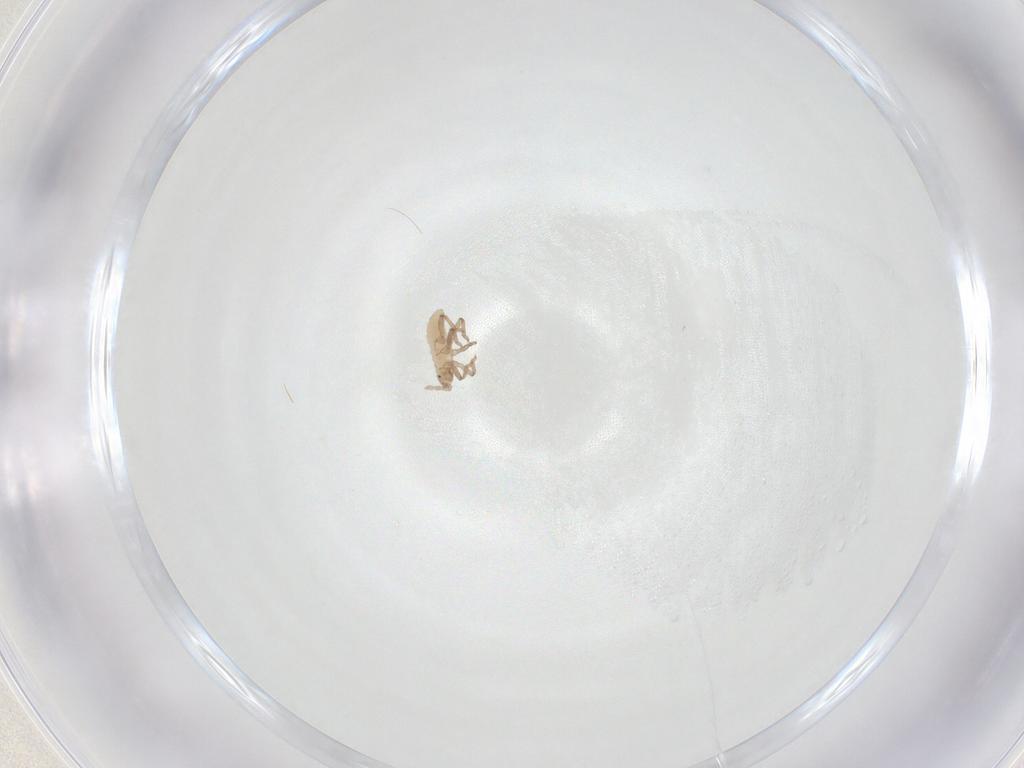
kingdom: Animalia
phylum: Arthropoda
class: Insecta
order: Hemiptera
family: Aphididae
